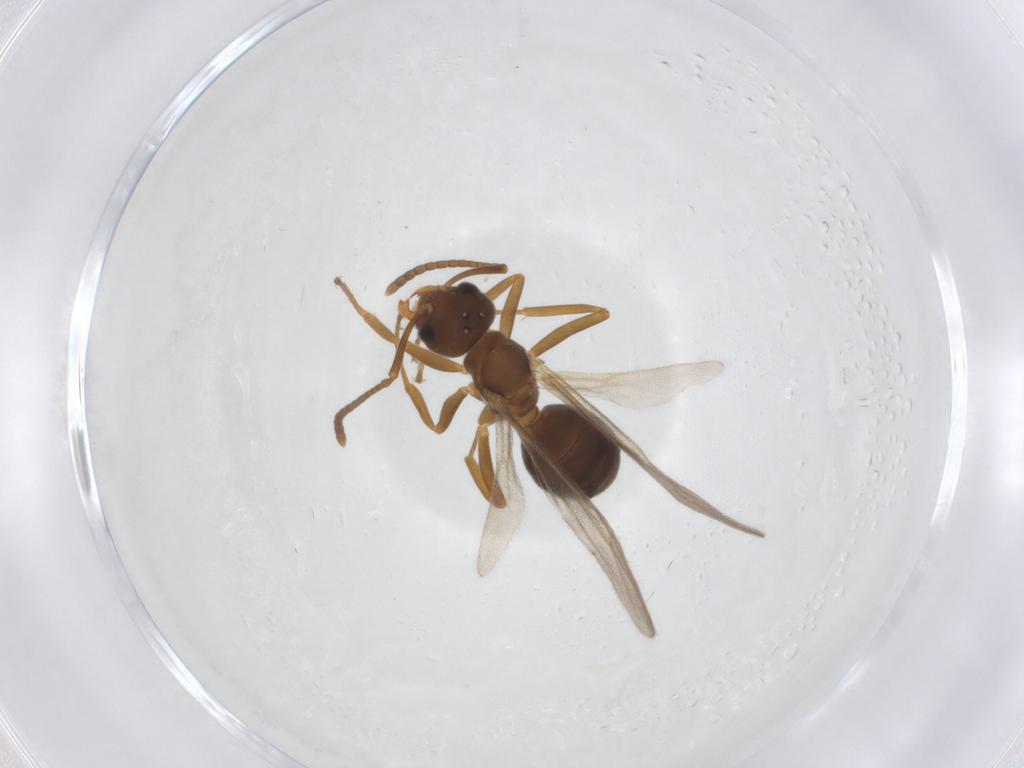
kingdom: Animalia
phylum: Arthropoda
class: Insecta
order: Hymenoptera
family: Formicidae
